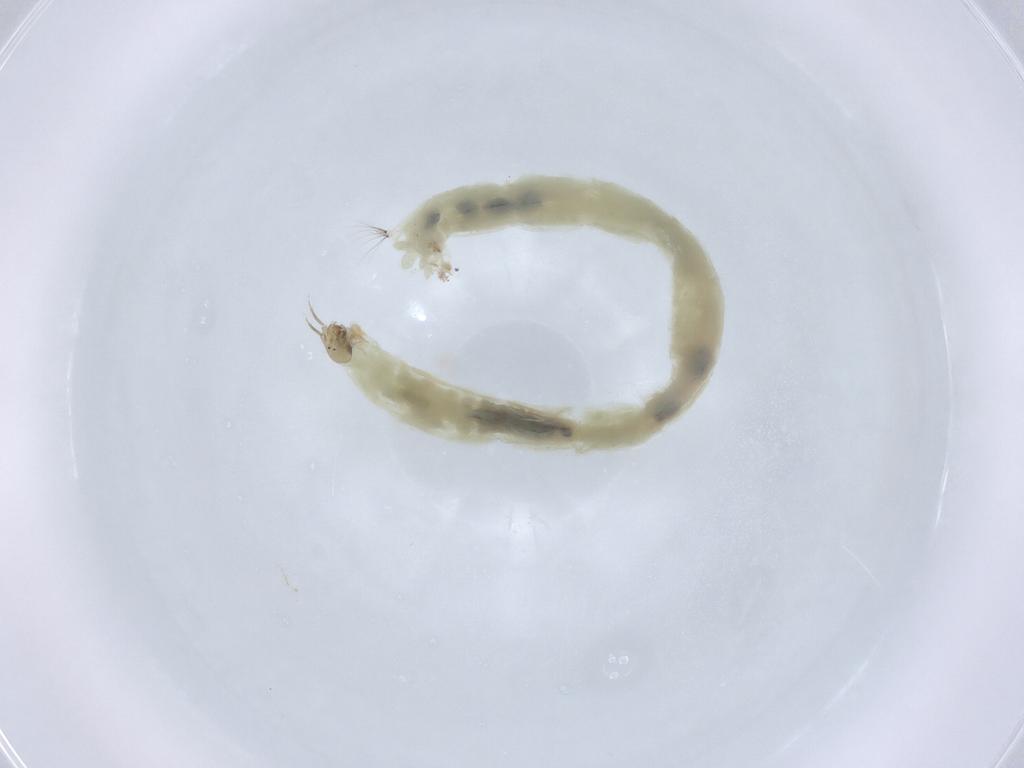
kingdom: Animalia
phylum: Arthropoda
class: Insecta
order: Diptera
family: Chironomidae
